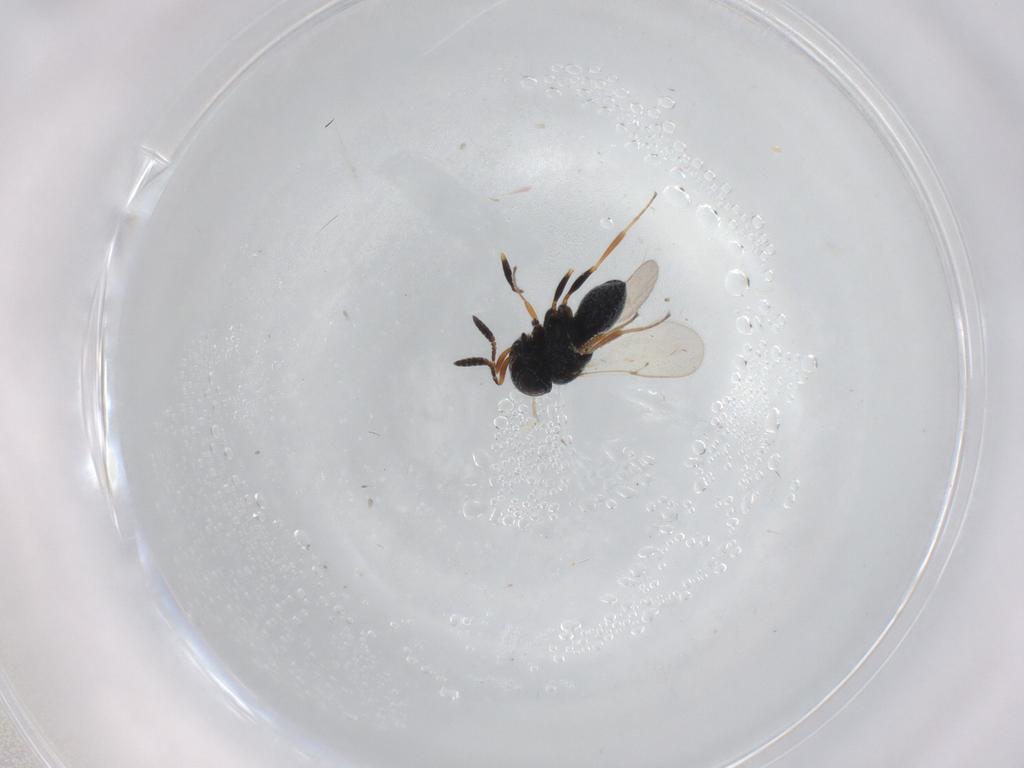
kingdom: Animalia
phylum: Arthropoda
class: Insecta
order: Coleoptera
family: Curculionidae
